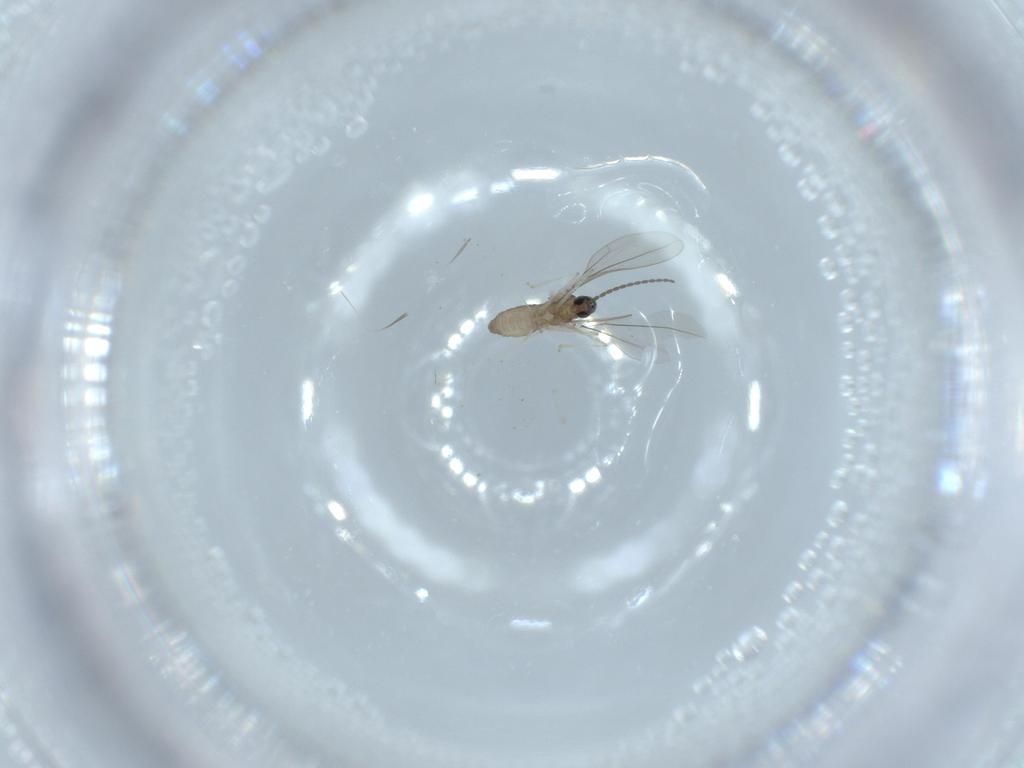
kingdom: Animalia
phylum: Arthropoda
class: Insecta
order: Diptera
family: Cecidomyiidae
